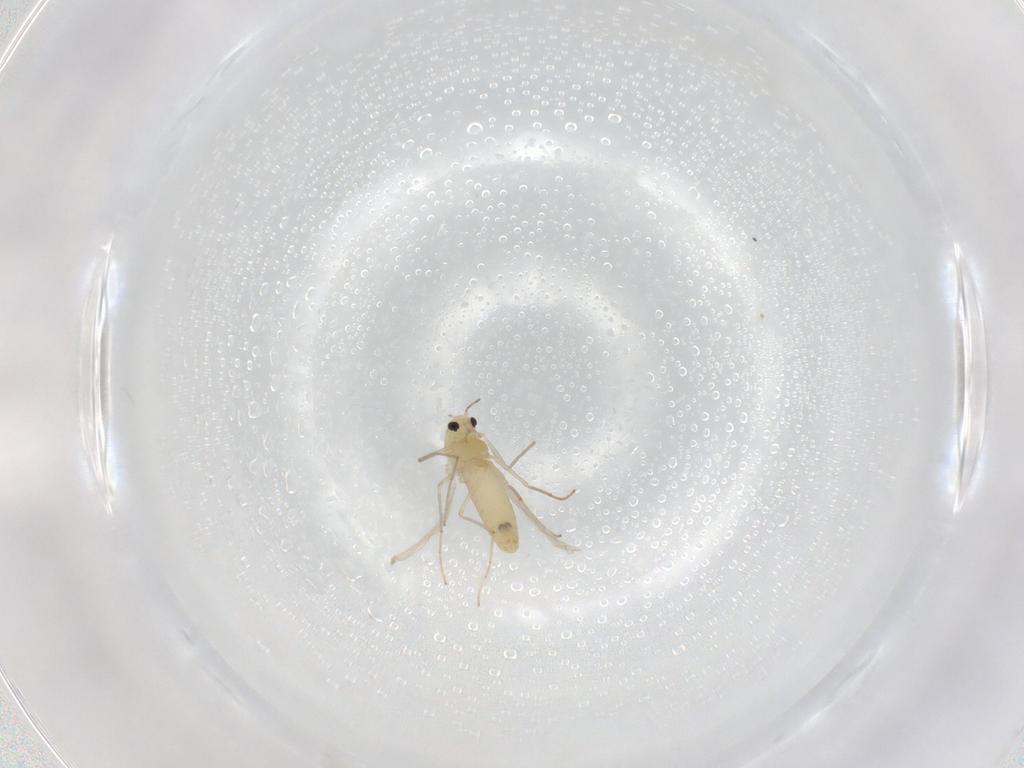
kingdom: Animalia
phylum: Arthropoda
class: Insecta
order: Diptera
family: Chironomidae
